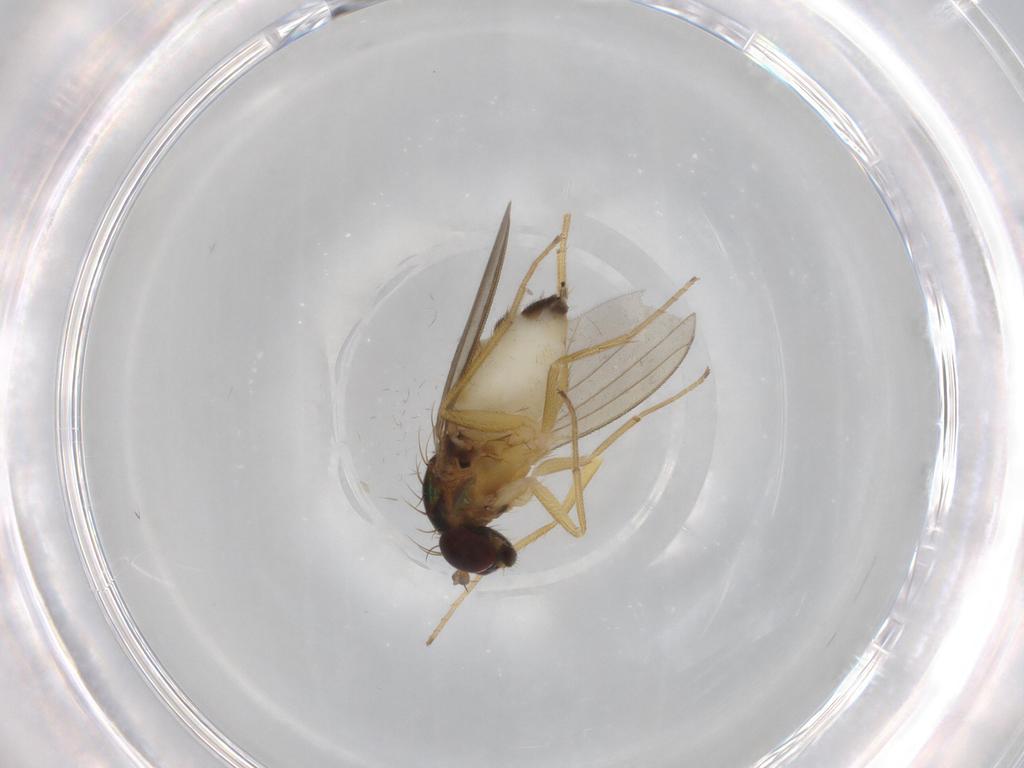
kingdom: Animalia
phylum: Arthropoda
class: Insecta
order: Diptera
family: Dolichopodidae
